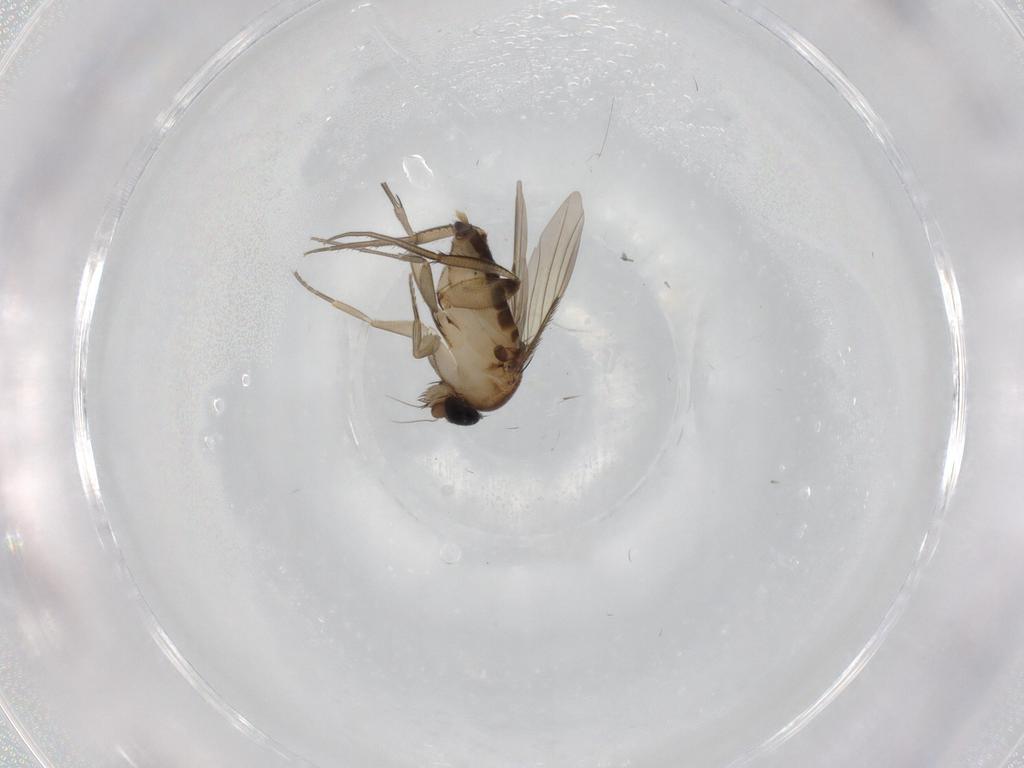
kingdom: Animalia
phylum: Arthropoda
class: Insecta
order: Diptera
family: Phoridae
